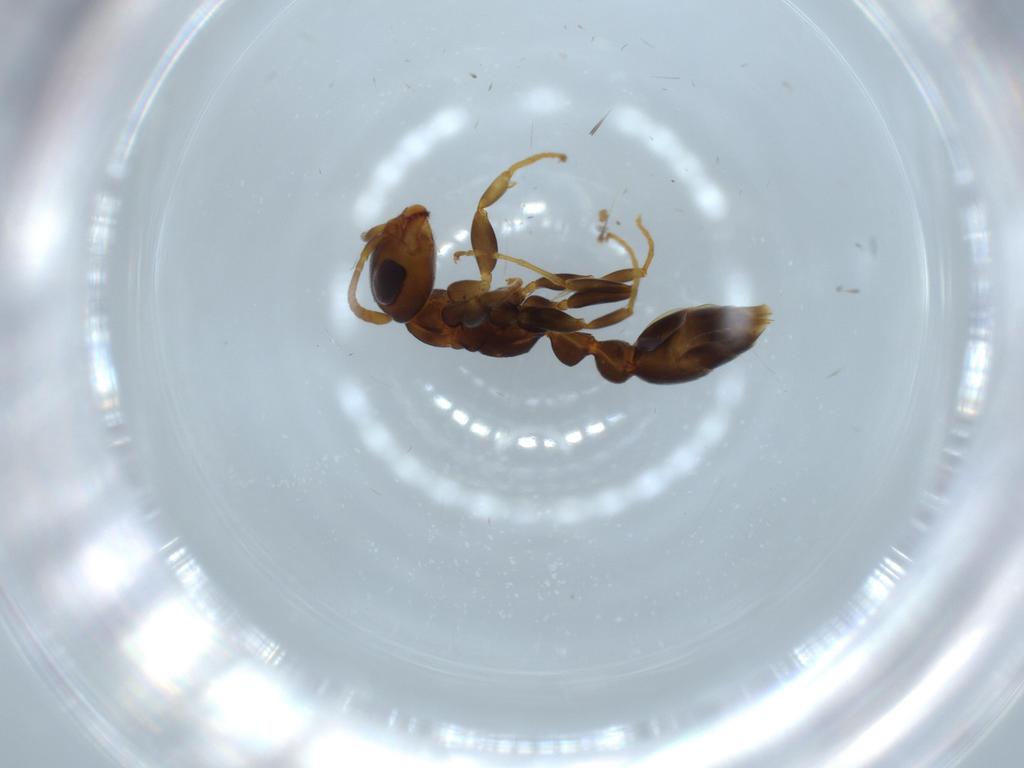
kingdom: Animalia
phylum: Arthropoda
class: Insecta
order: Hymenoptera
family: Formicidae
